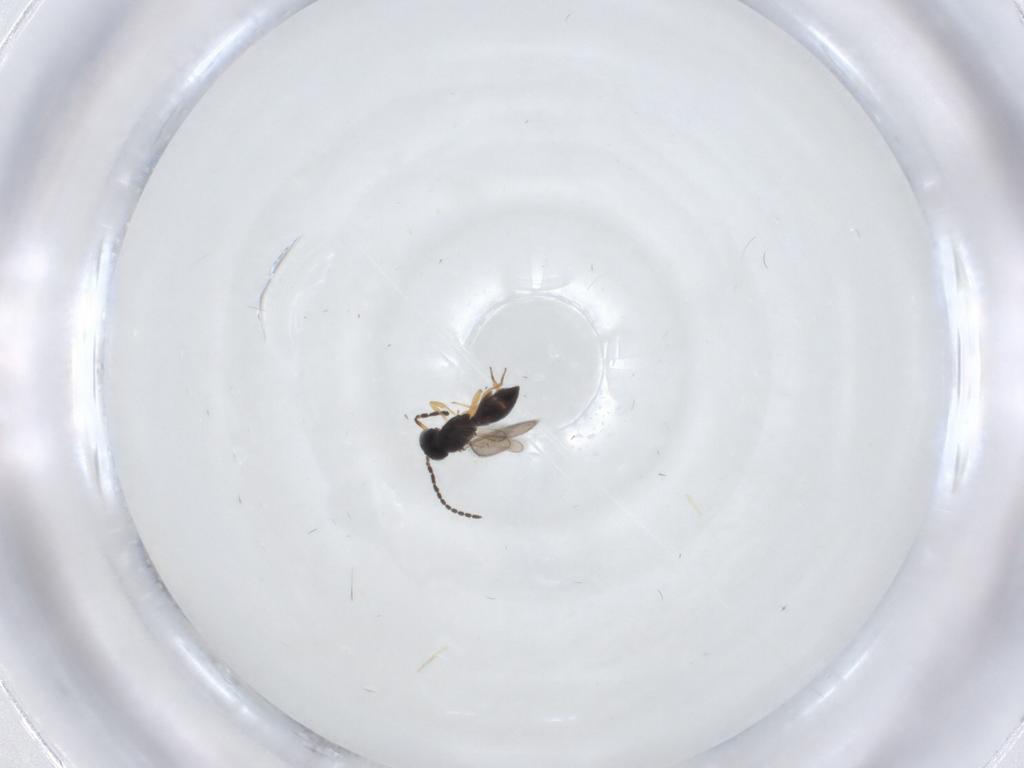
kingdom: Animalia
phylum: Arthropoda
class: Insecta
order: Hymenoptera
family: Scelionidae
